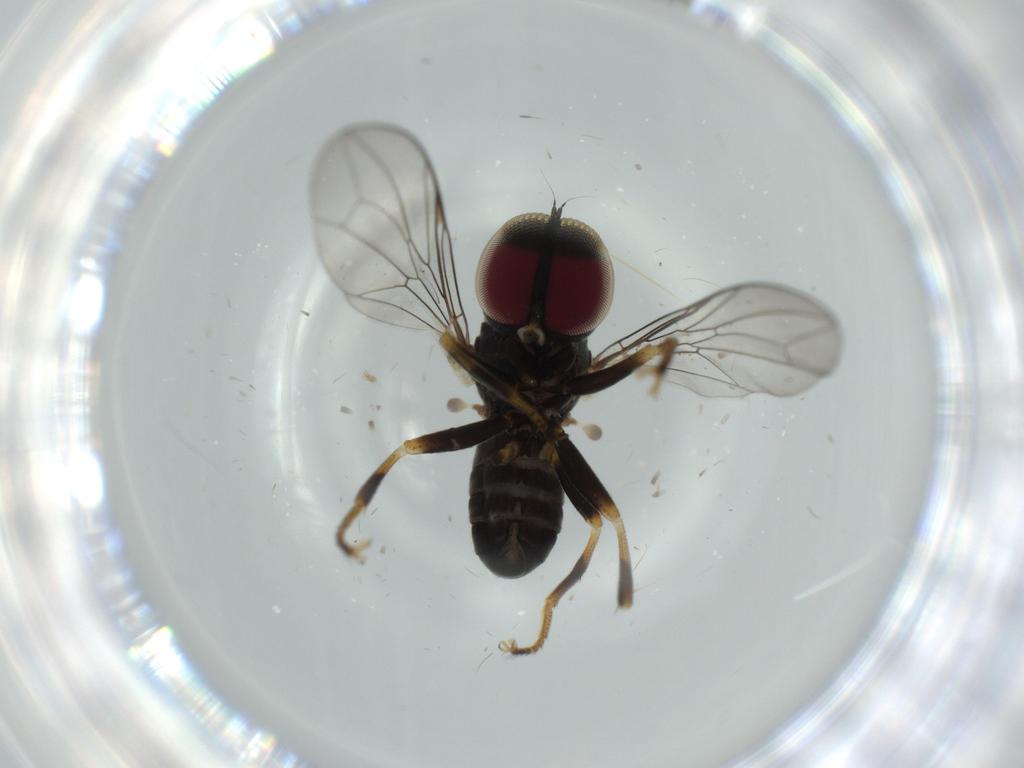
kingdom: Animalia
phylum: Arthropoda
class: Insecta
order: Diptera
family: Pipunculidae
